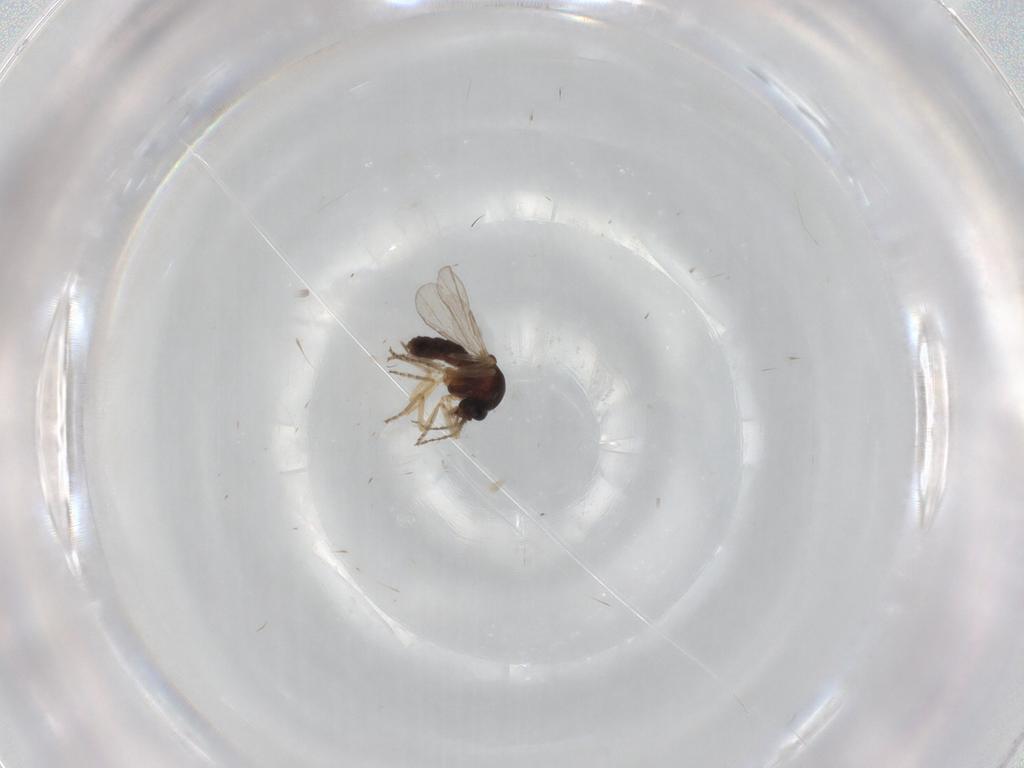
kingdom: Animalia
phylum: Arthropoda
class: Insecta
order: Diptera
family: Ceratopogonidae
